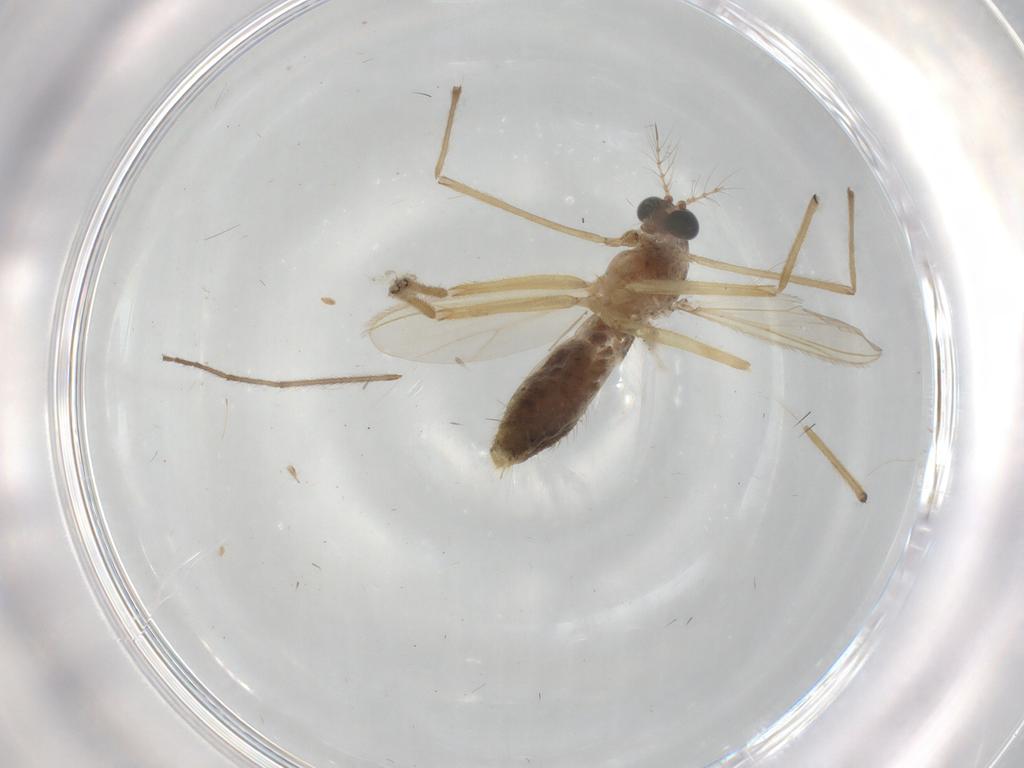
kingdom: Animalia
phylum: Arthropoda
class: Insecta
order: Diptera
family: Chironomidae
